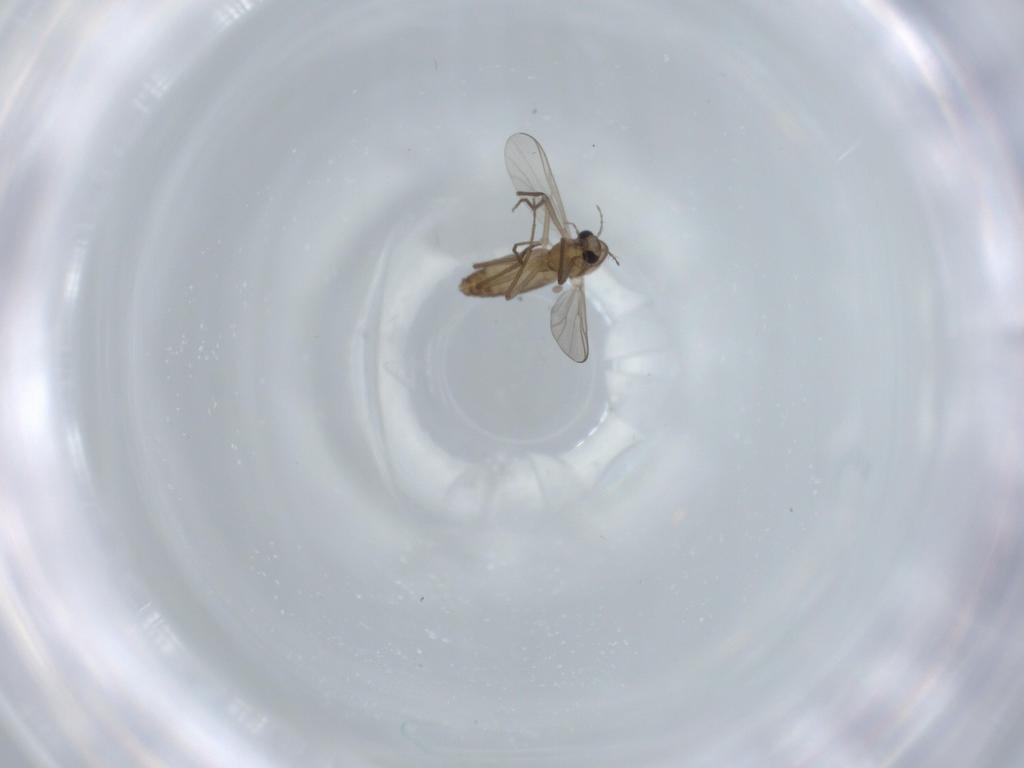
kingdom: Animalia
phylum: Arthropoda
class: Insecta
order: Diptera
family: Chironomidae
